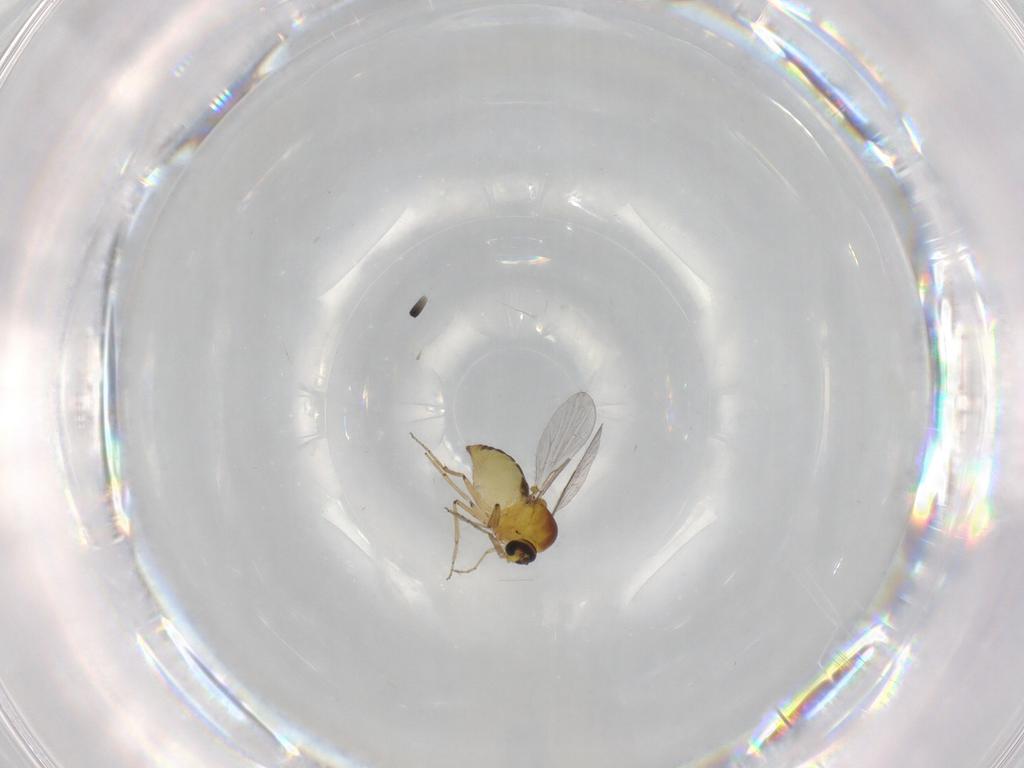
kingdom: Animalia
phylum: Arthropoda
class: Insecta
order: Diptera
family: Ceratopogonidae
